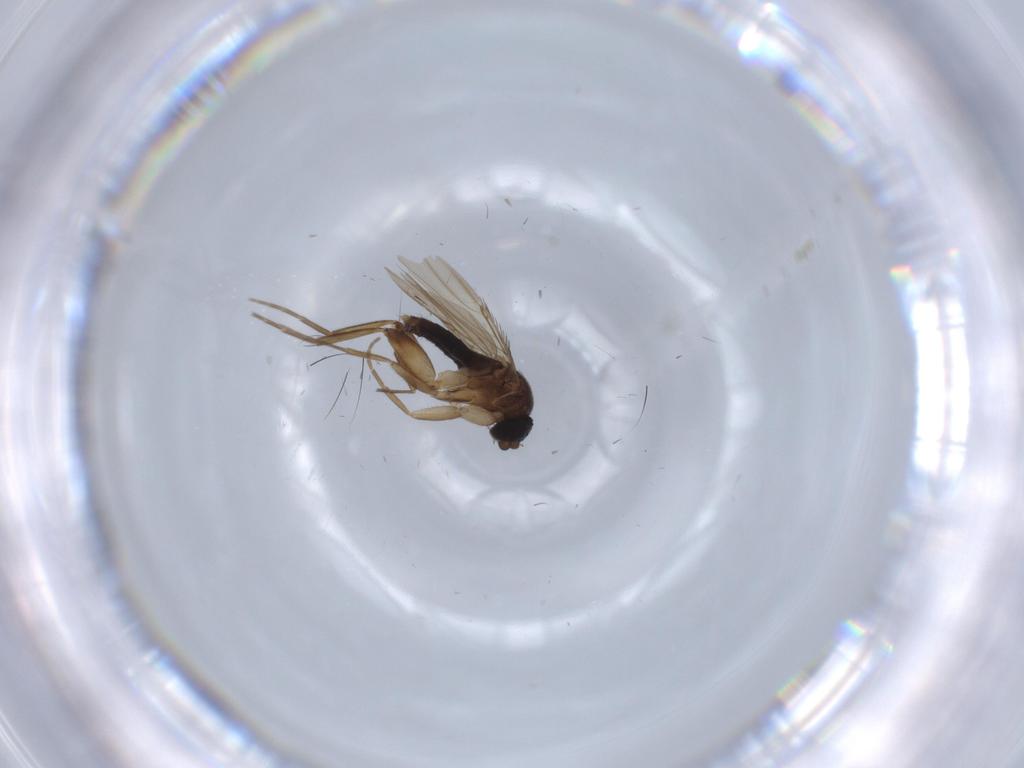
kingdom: Animalia
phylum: Arthropoda
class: Insecta
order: Diptera
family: Phoridae
